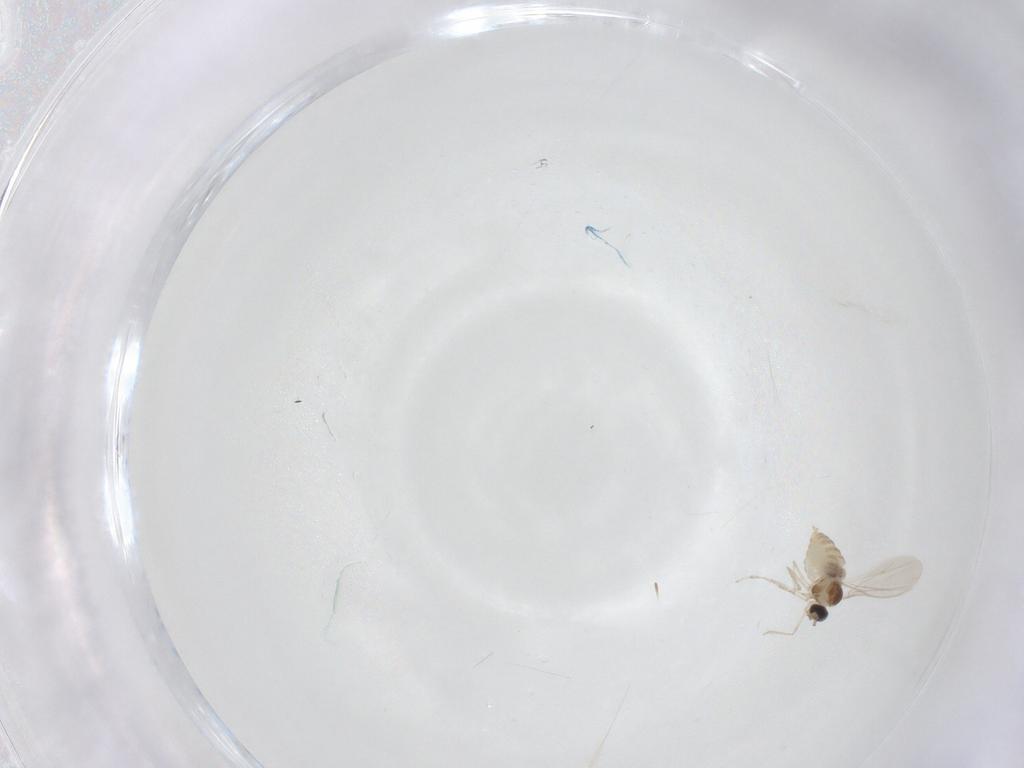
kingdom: Animalia
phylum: Arthropoda
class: Insecta
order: Diptera
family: Cecidomyiidae
